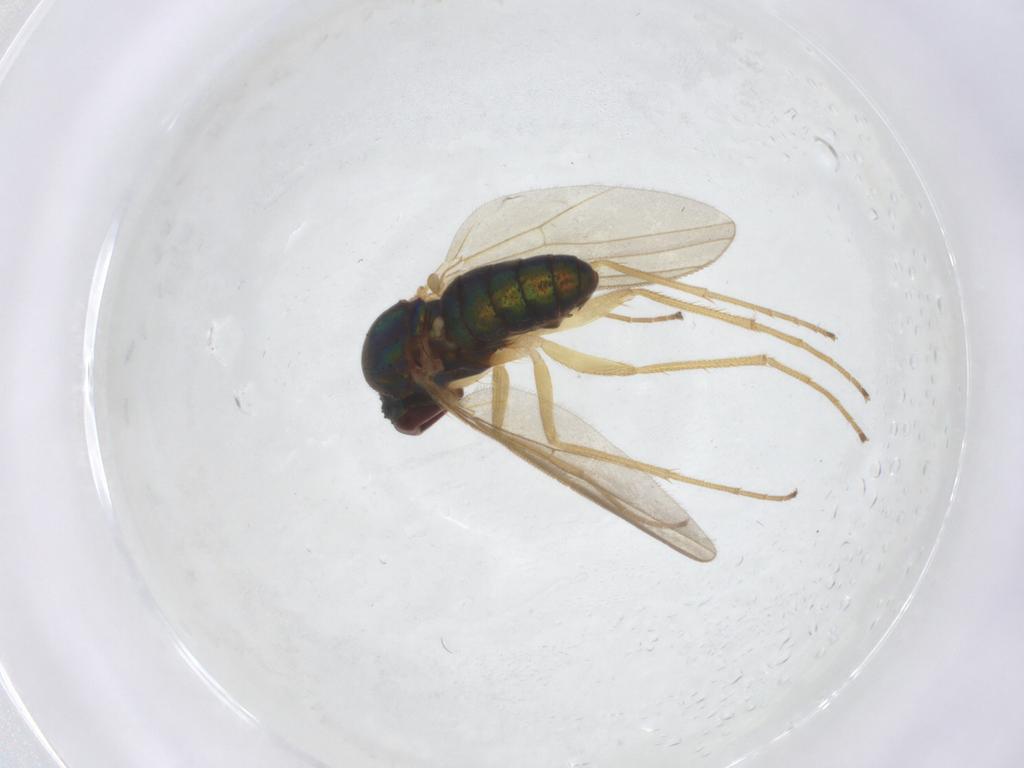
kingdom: Animalia
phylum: Arthropoda
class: Insecta
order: Diptera
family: Dolichopodidae
